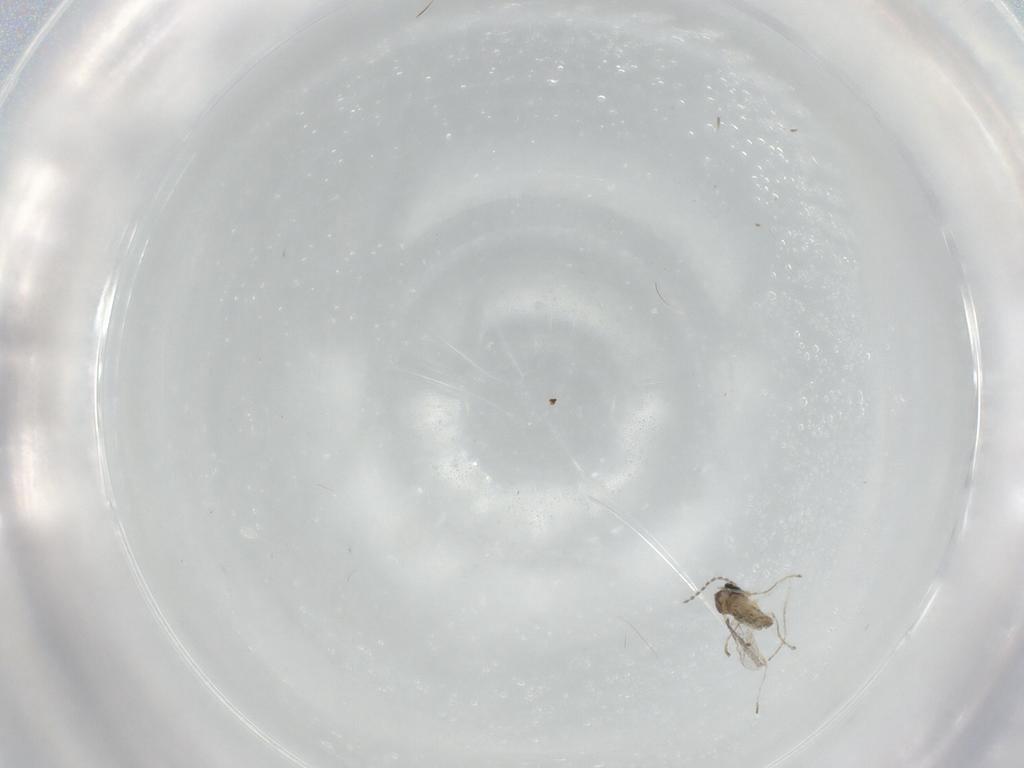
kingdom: Animalia
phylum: Arthropoda
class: Insecta
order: Diptera
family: Cecidomyiidae
